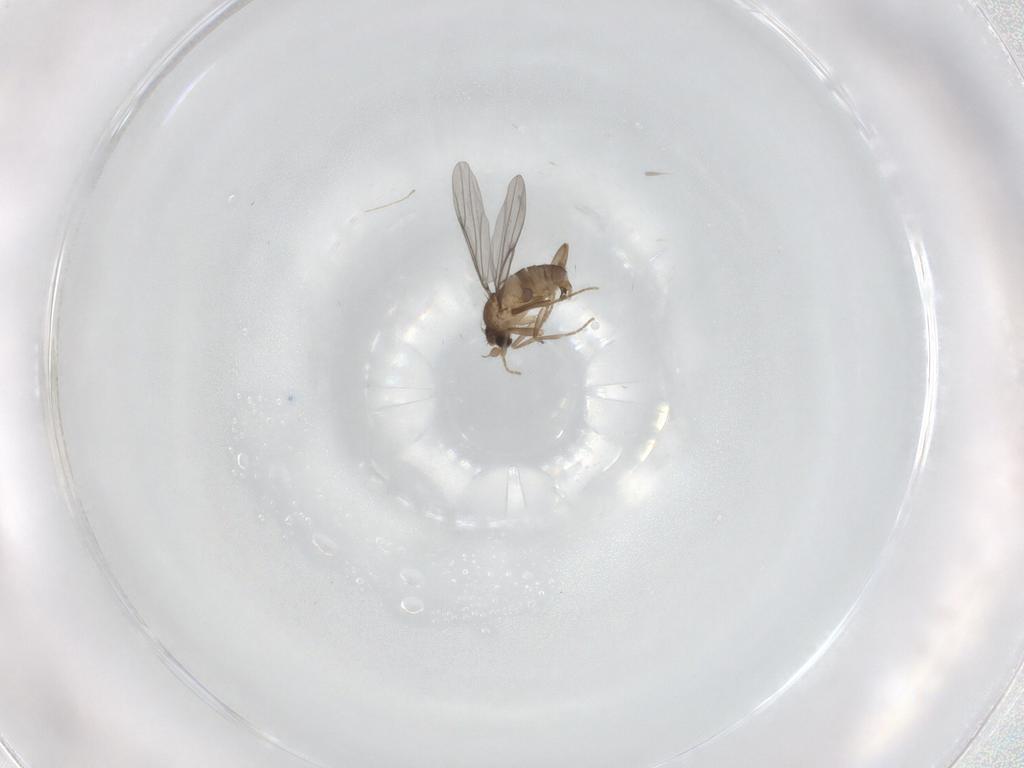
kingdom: Animalia
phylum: Arthropoda
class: Insecta
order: Diptera
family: Cecidomyiidae
